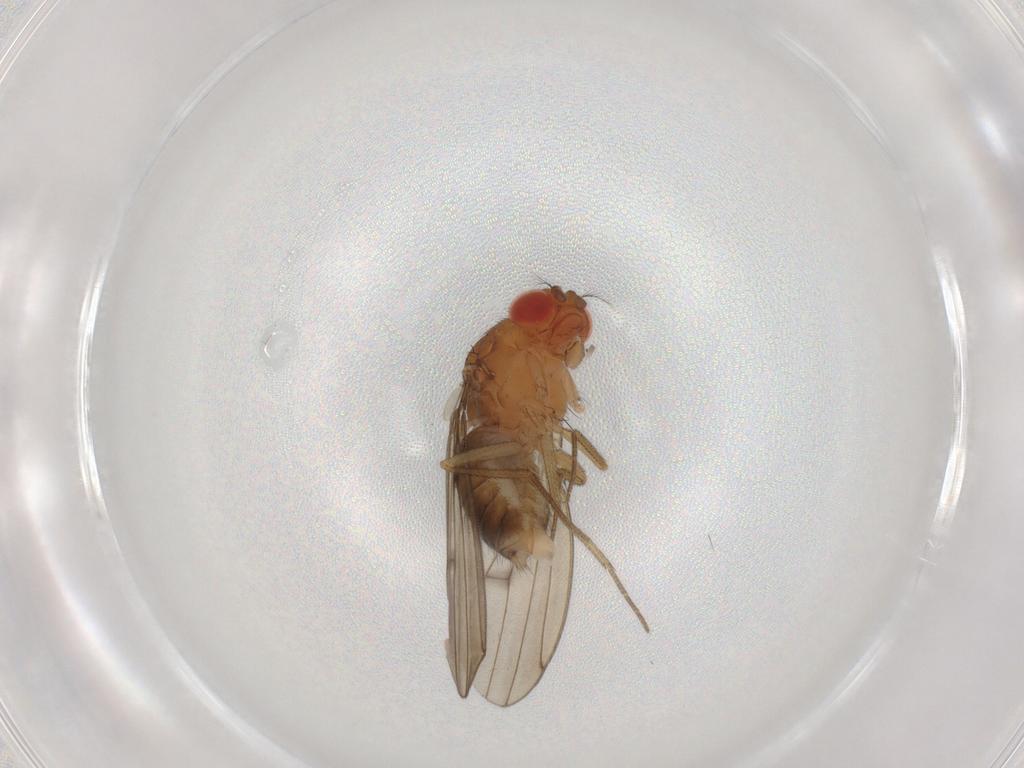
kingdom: Animalia
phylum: Arthropoda
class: Insecta
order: Diptera
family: Drosophilidae
